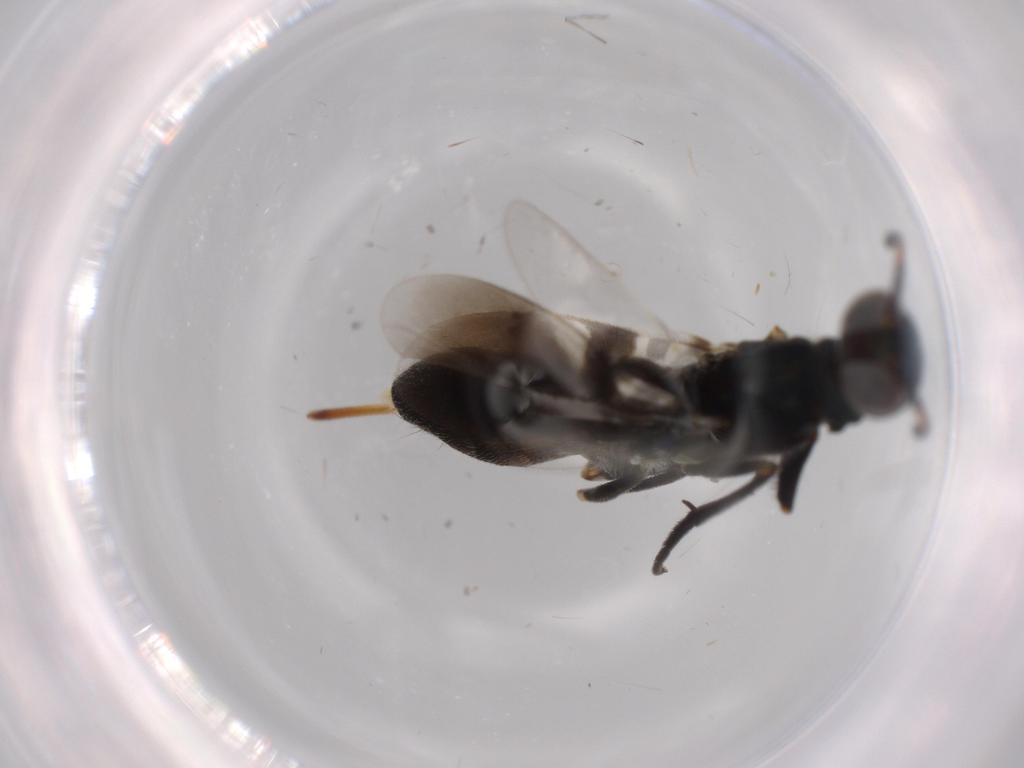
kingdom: Animalia
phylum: Arthropoda
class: Insecta
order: Hymenoptera
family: Eupelmidae
